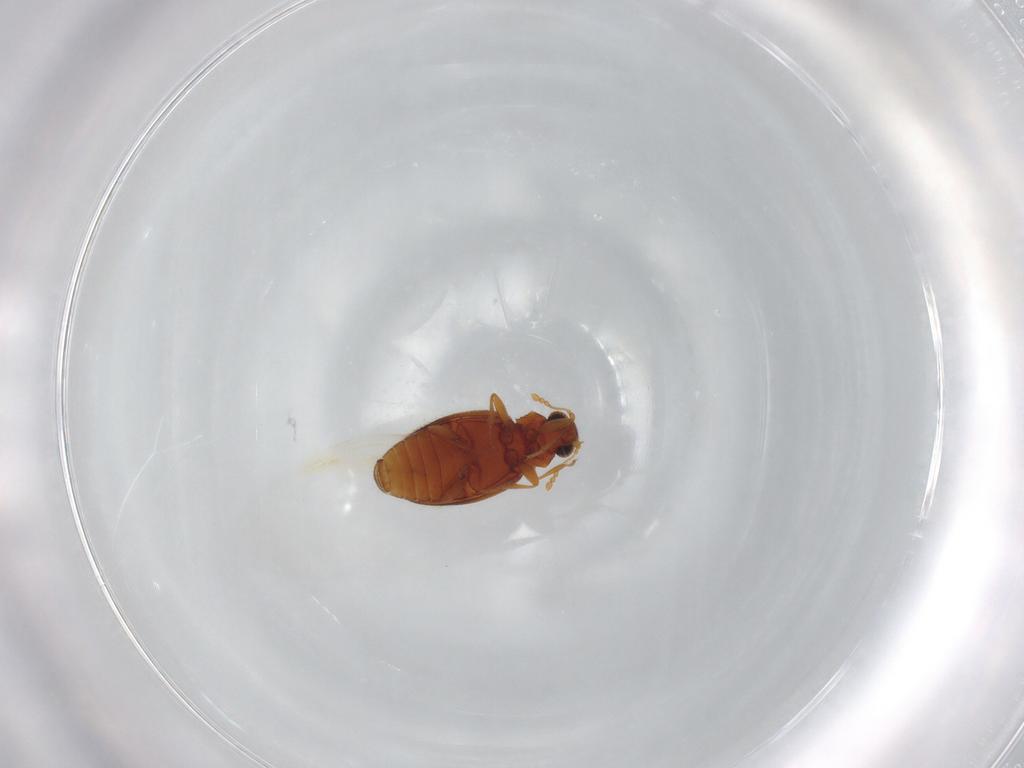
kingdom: Animalia
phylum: Arthropoda
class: Insecta
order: Coleoptera
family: Latridiidae
